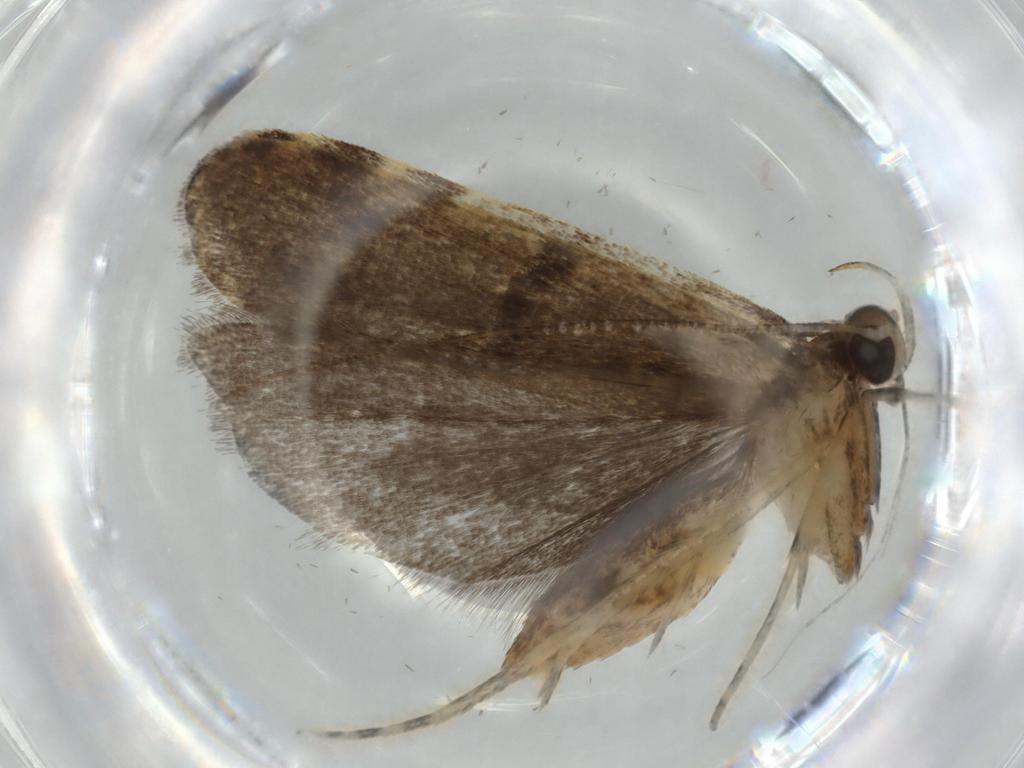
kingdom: Animalia
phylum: Arthropoda
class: Insecta
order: Lepidoptera
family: Autostichidae
